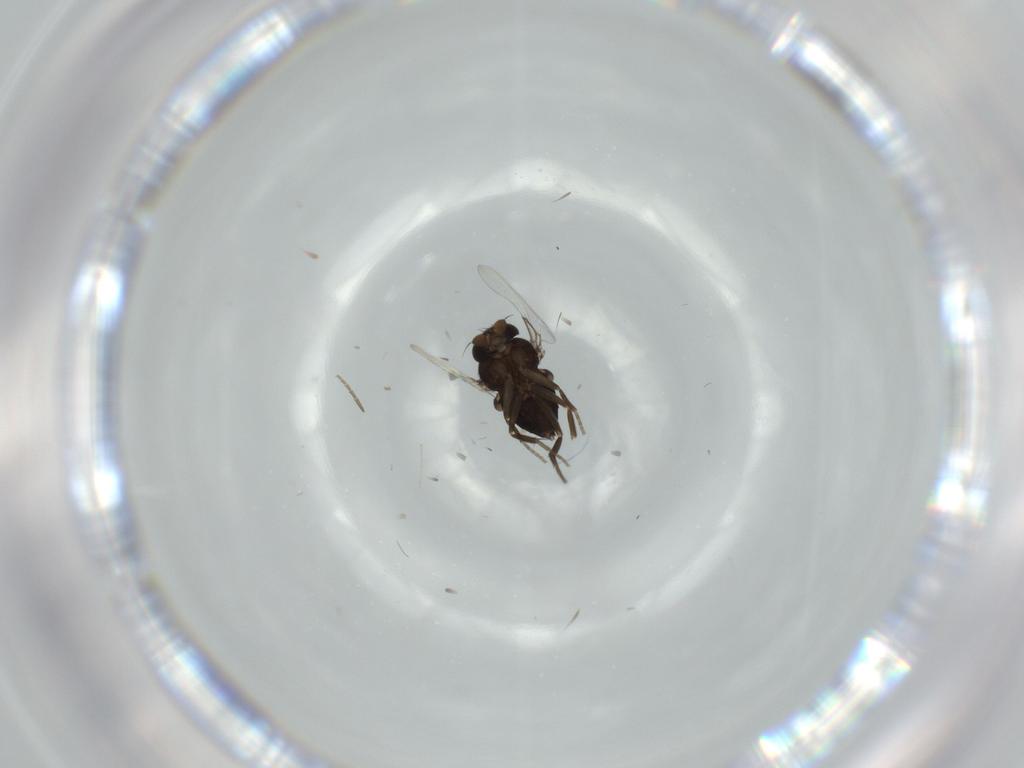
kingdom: Animalia
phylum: Arthropoda
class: Insecta
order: Diptera
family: Phoridae
